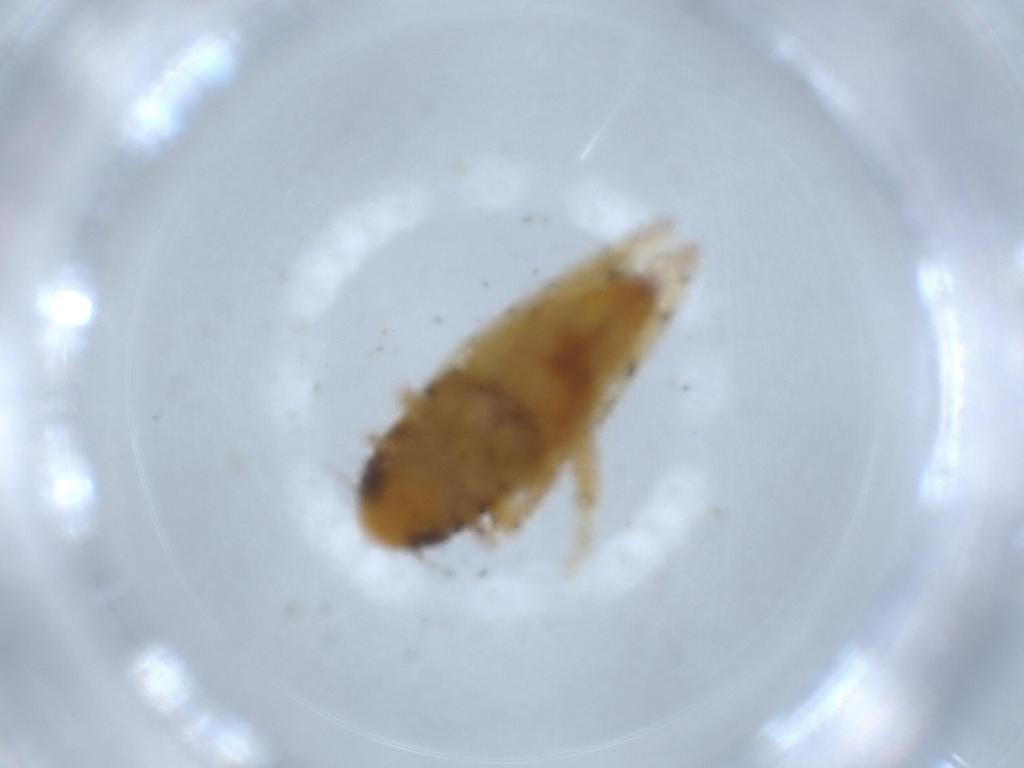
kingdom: Animalia
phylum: Arthropoda
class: Insecta
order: Hemiptera
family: Cicadellidae
